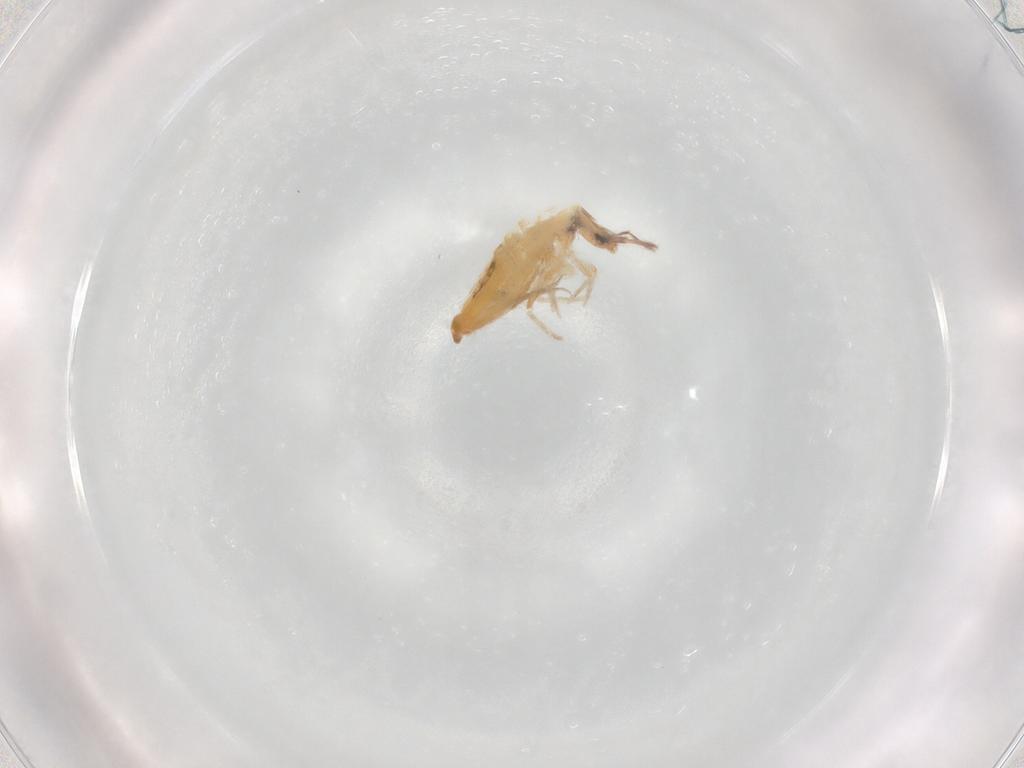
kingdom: Animalia
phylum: Arthropoda
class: Collembola
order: Entomobryomorpha
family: Entomobryidae
